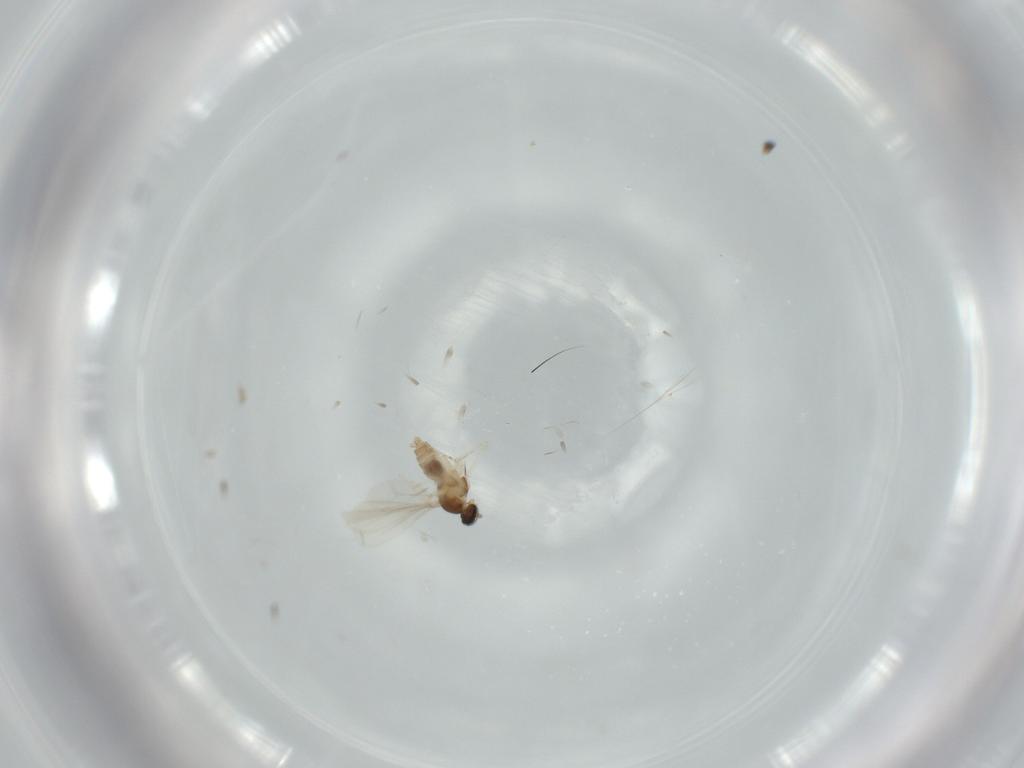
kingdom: Animalia
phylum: Arthropoda
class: Insecta
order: Diptera
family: Cecidomyiidae
